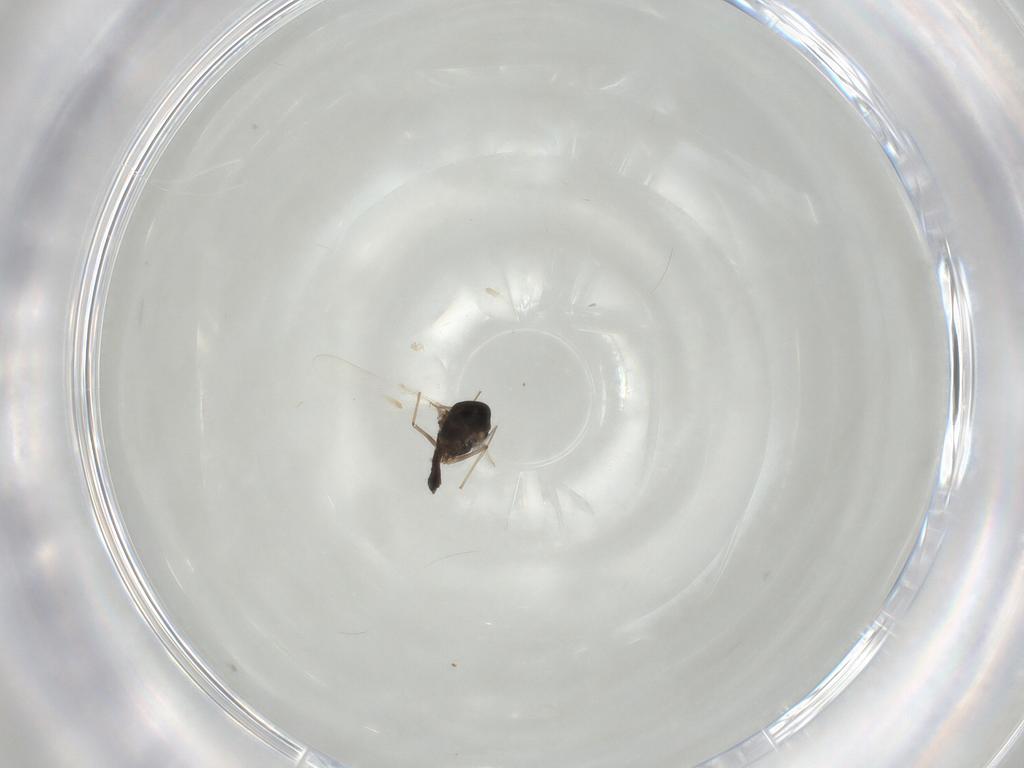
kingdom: Animalia
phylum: Arthropoda
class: Insecta
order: Diptera
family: Chironomidae
